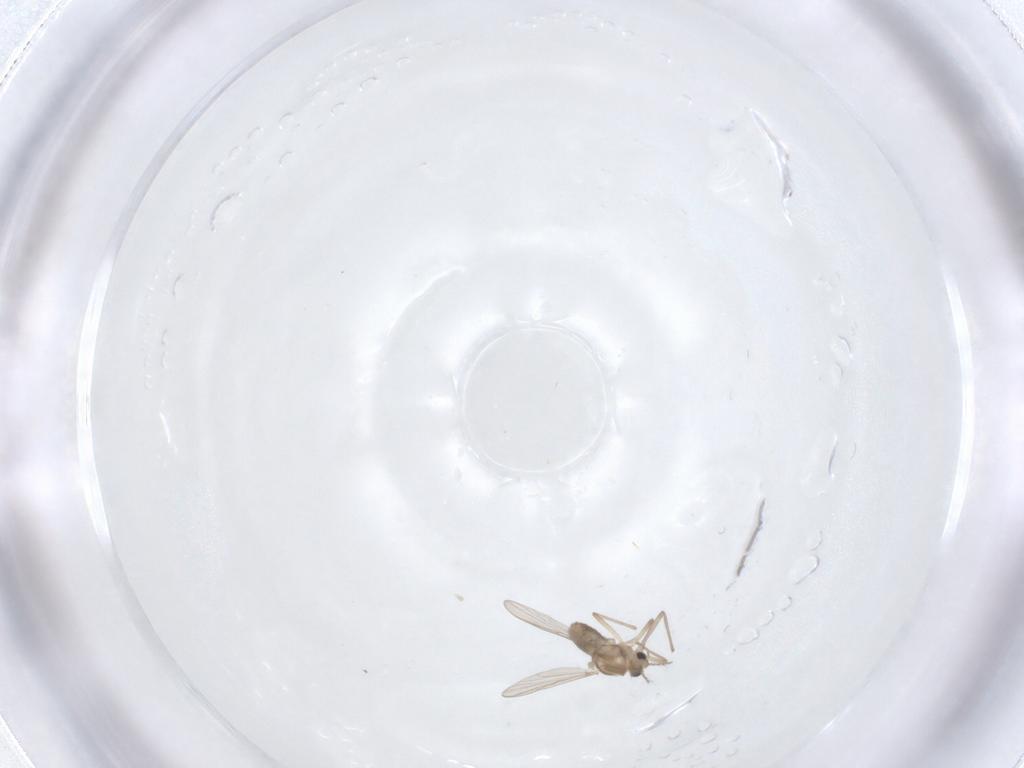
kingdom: Animalia
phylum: Arthropoda
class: Insecta
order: Diptera
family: Chironomidae
